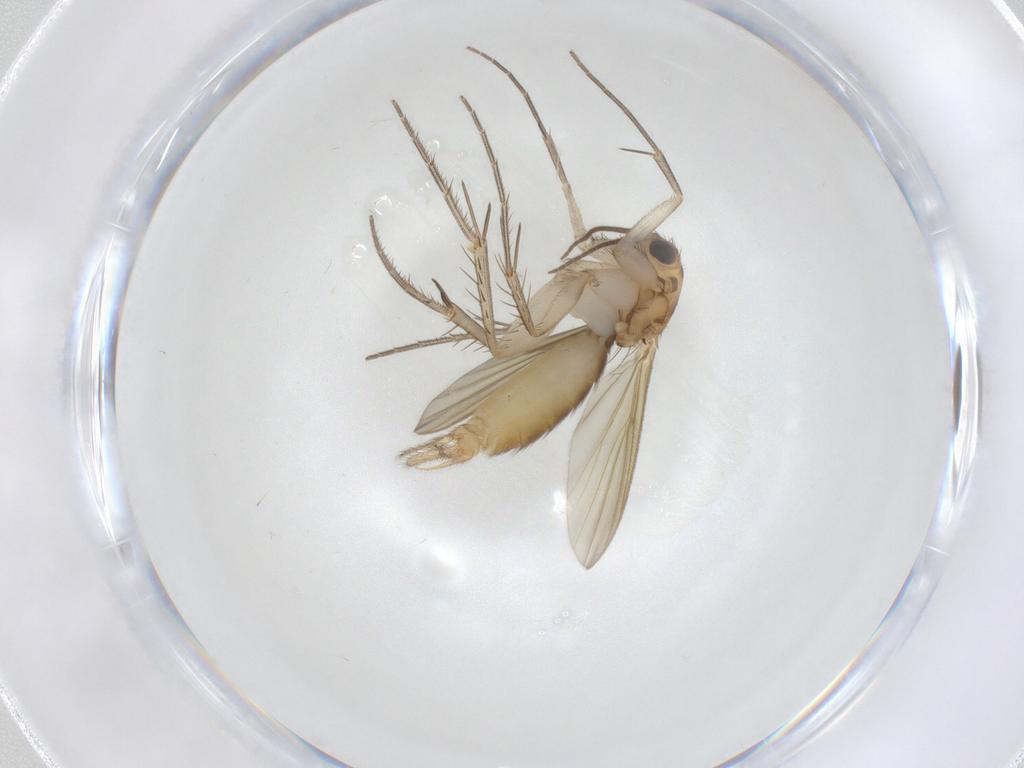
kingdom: Animalia
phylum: Arthropoda
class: Insecta
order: Diptera
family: Mycetophilidae
